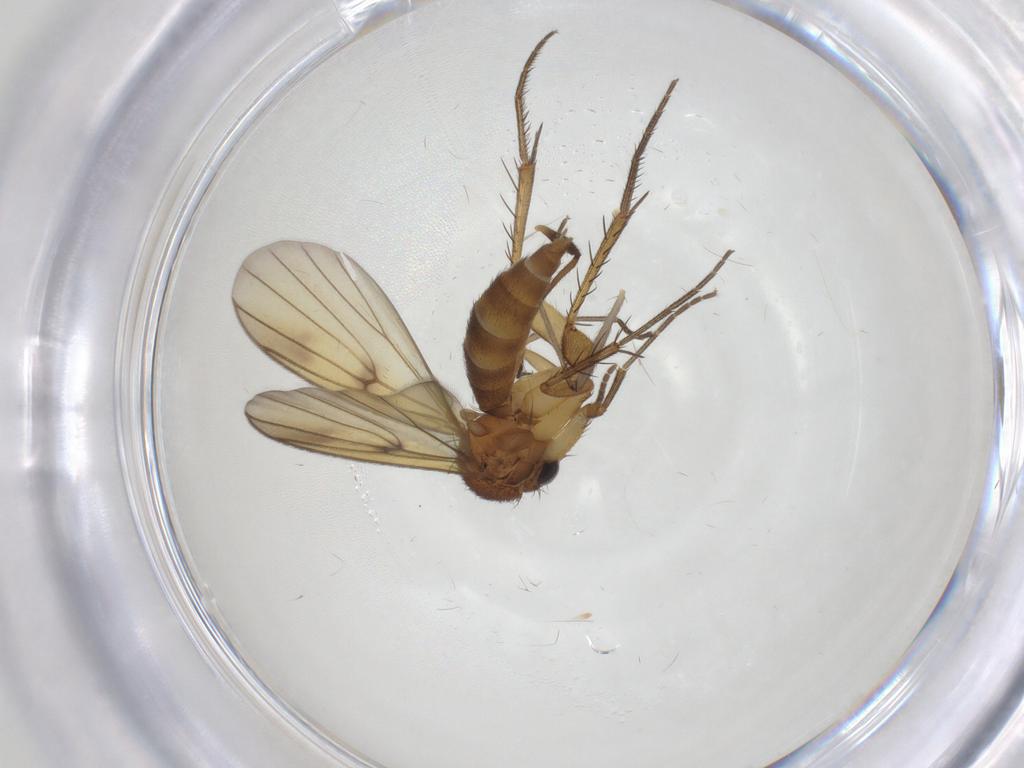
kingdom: Animalia
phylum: Arthropoda
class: Insecta
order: Diptera
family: Mycetophilidae
